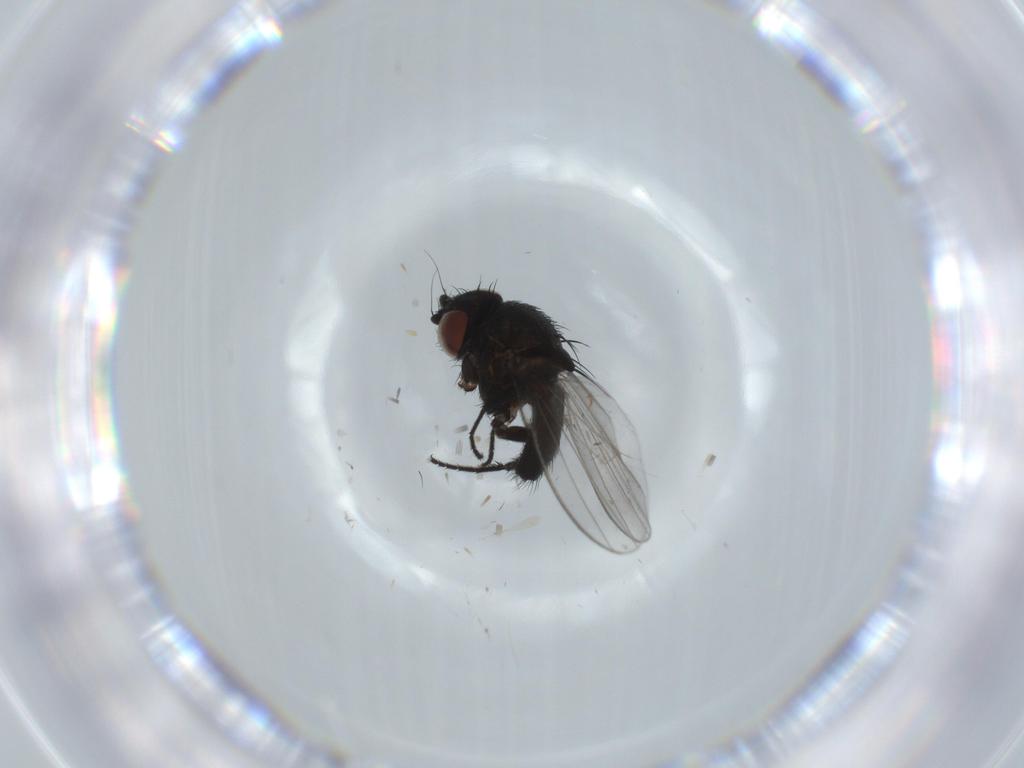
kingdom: Animalia
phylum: Arthropoda
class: Insecta
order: Diptera
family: Milichiidae
